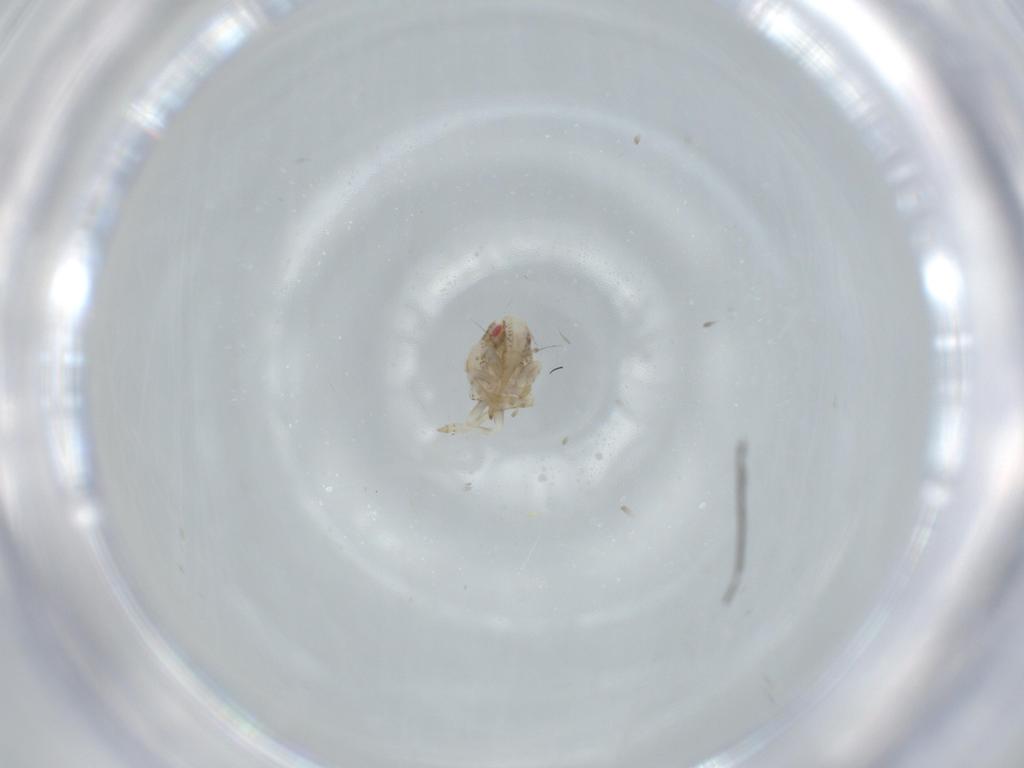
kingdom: Animalia
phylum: Arthropoda
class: Insecta
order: Hemiptera
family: Acanaloniidae
